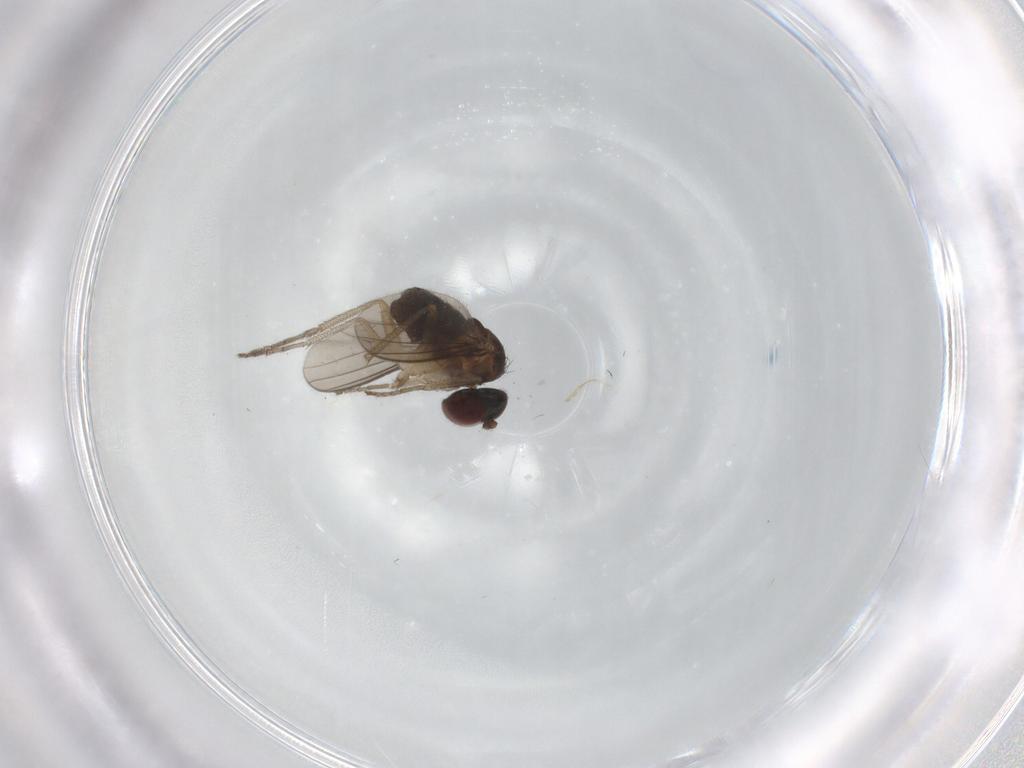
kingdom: Animalia
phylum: Arthropoda
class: Insecta
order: Diptera
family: Dolichopodidae
